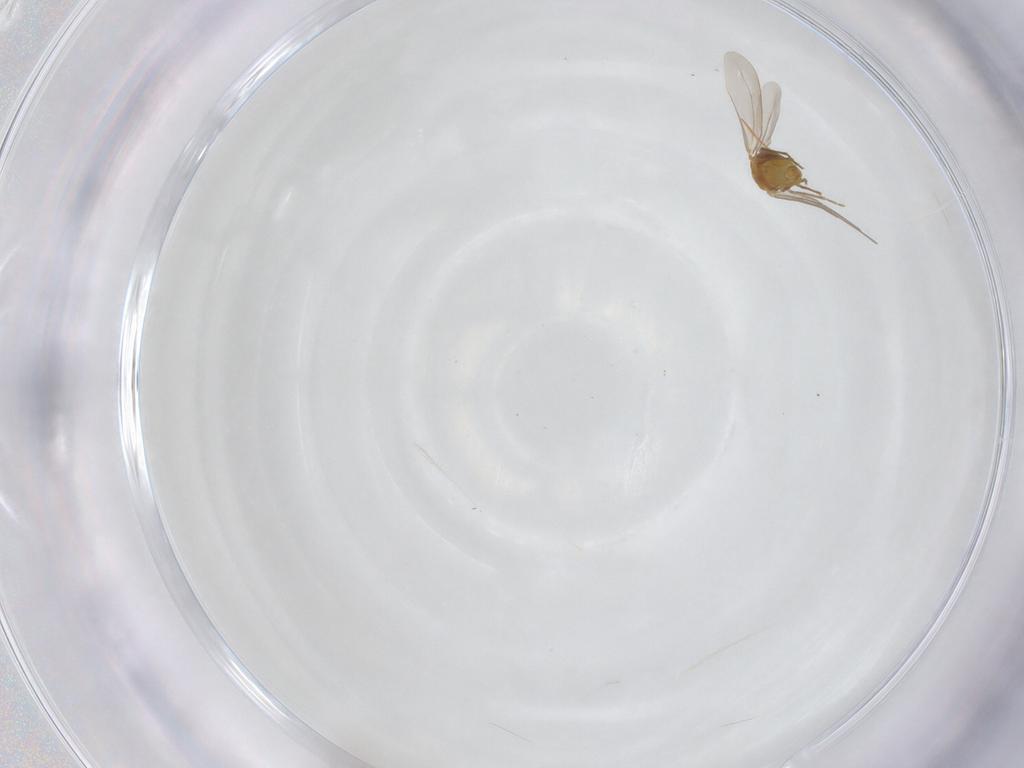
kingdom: Animalia
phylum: Arthropoda
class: Insecta
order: Hemiptera
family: Aleyrodidae
